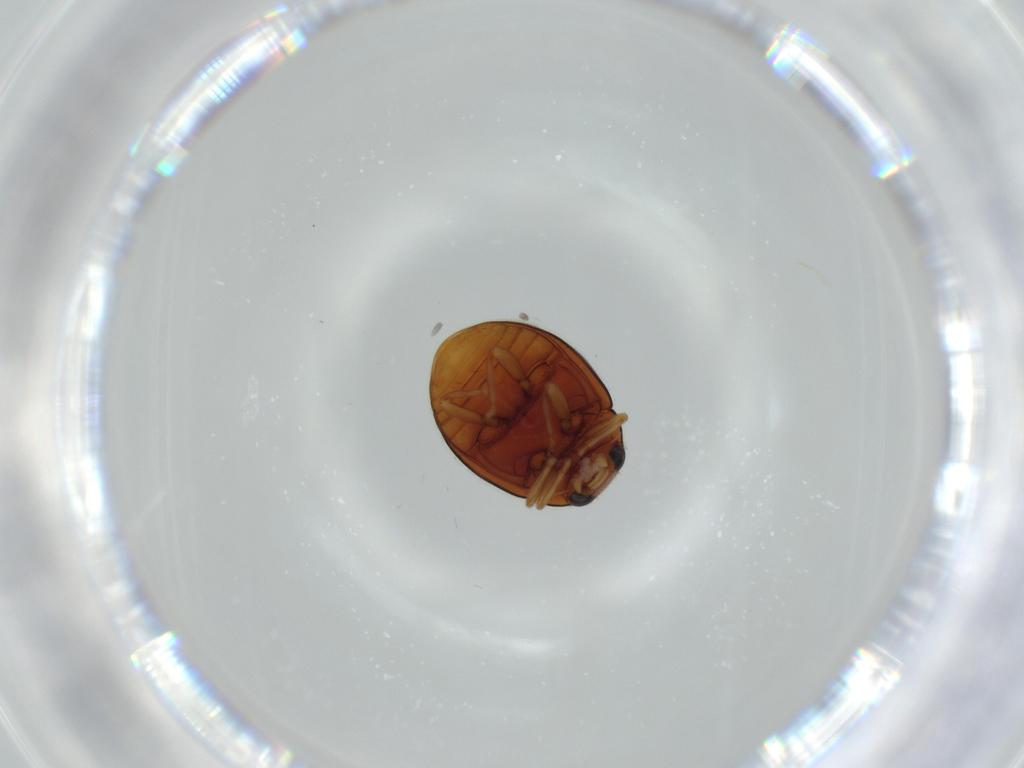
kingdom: Animalia
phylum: Arthropoda
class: Insecta
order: Coleoptera
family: Coccinellidae
